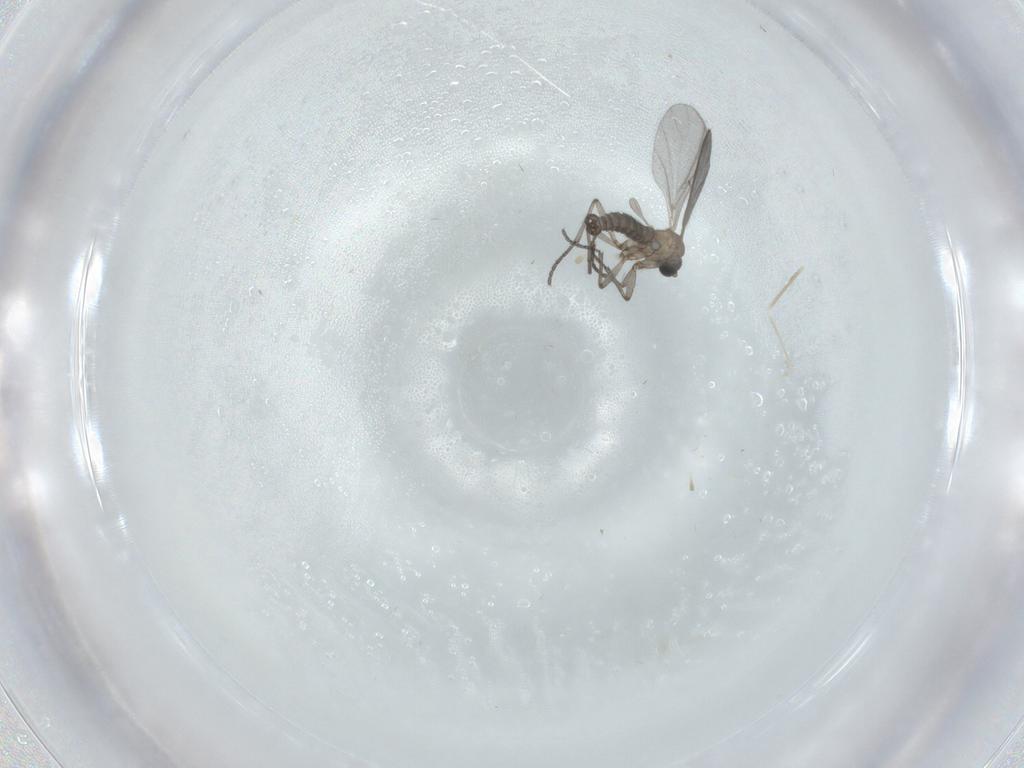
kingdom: Animalia
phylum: Arthropoda
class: Insecta
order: Diptera
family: Sciaridae
